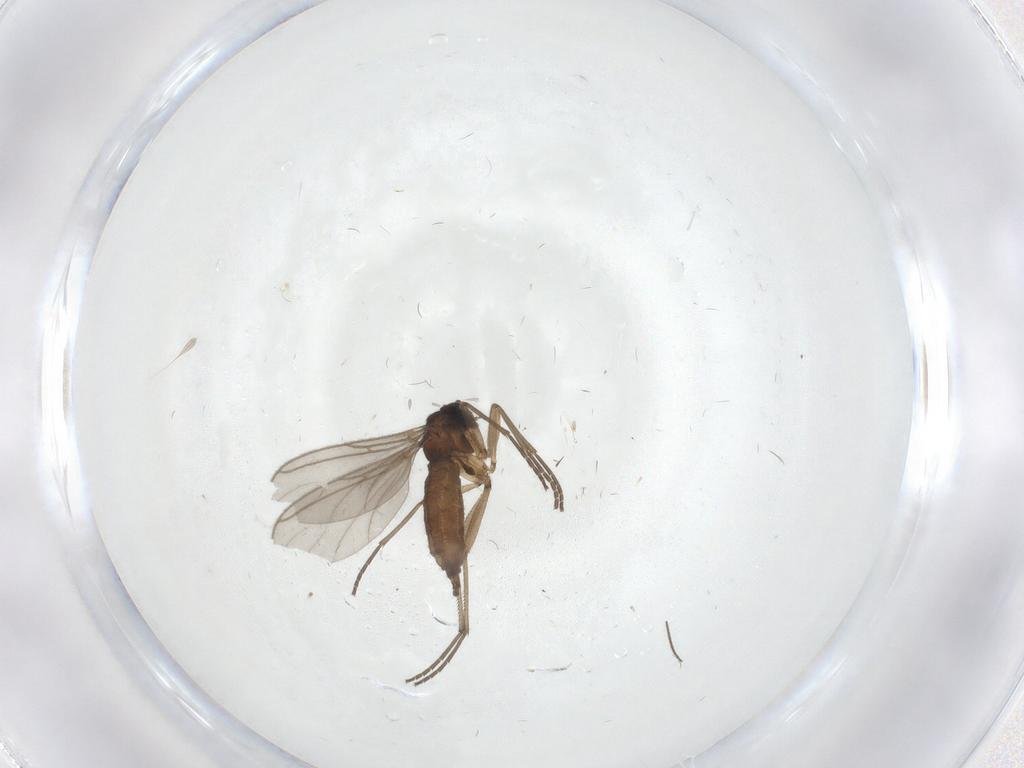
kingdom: Animalia
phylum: Arthropoda
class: Insecta
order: Diptera
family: Sciaridae
